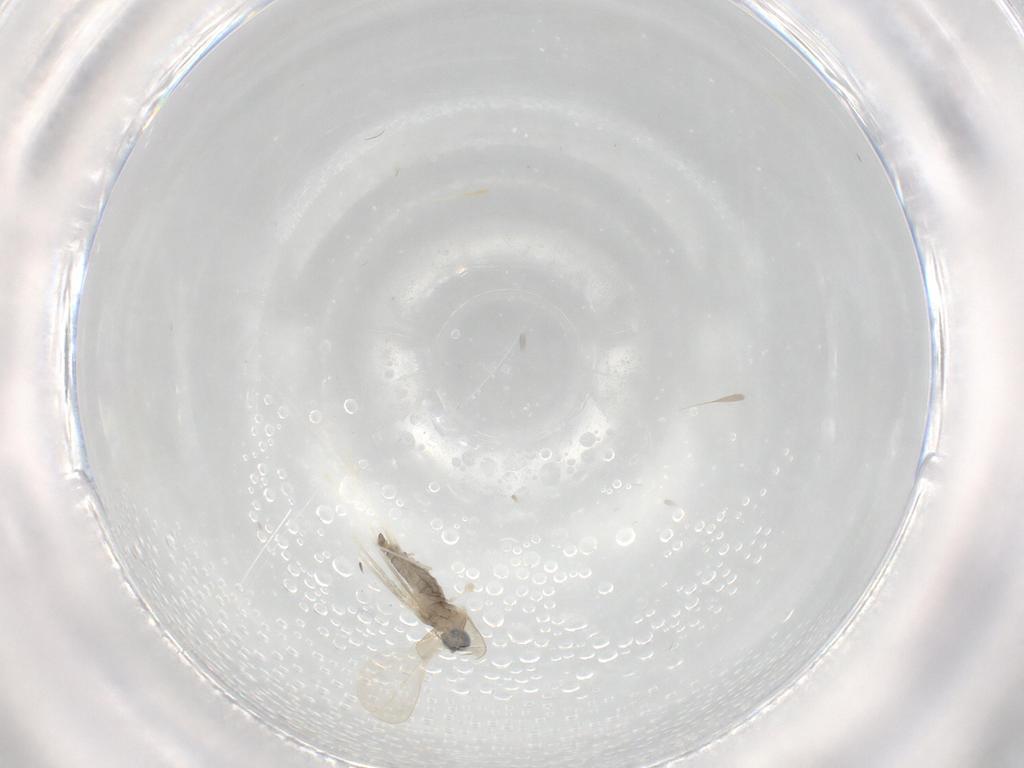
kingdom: Animalia
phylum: Arthropoda
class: Insecta
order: Diptera
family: Cecidomyiidae
